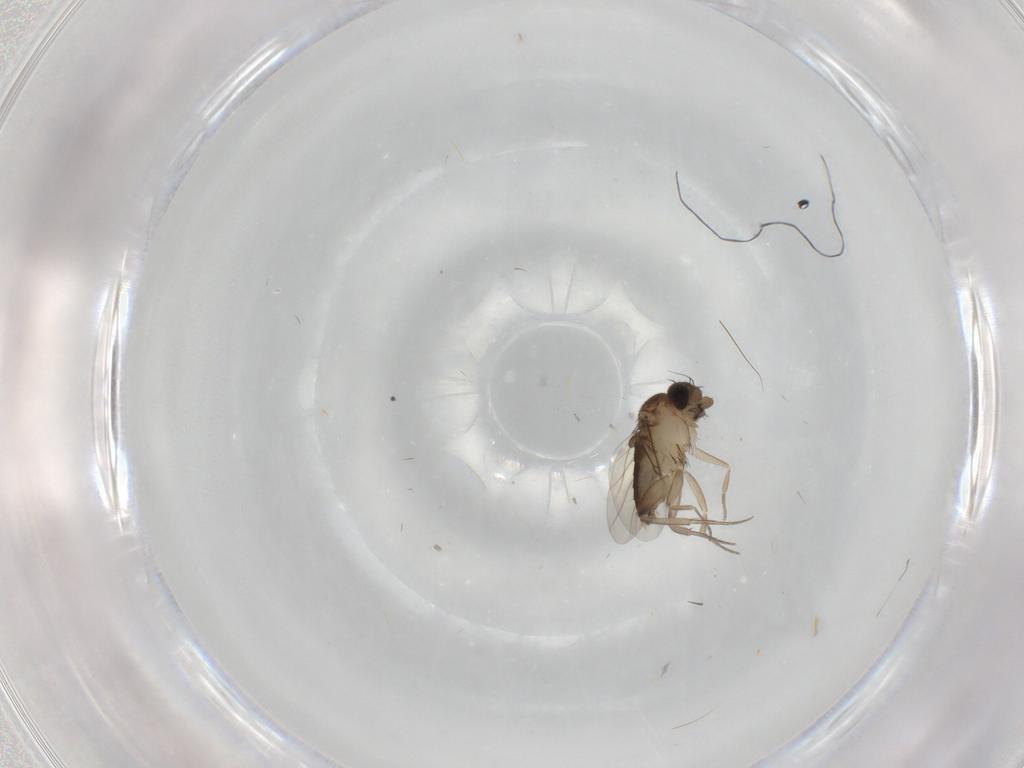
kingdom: Animalia
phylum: Arthropoda
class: Insecta
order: Diptera
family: Phoridae
